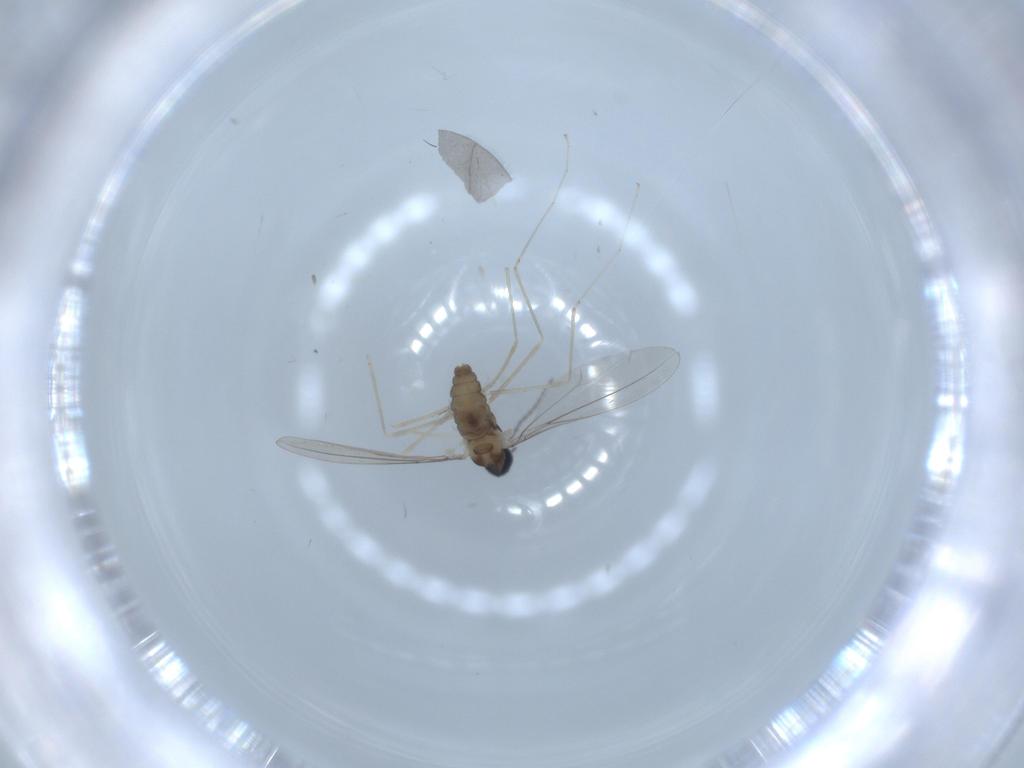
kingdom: Animalia
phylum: Arthropoda
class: Insecta
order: Diptera
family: Cecidomyiidae
